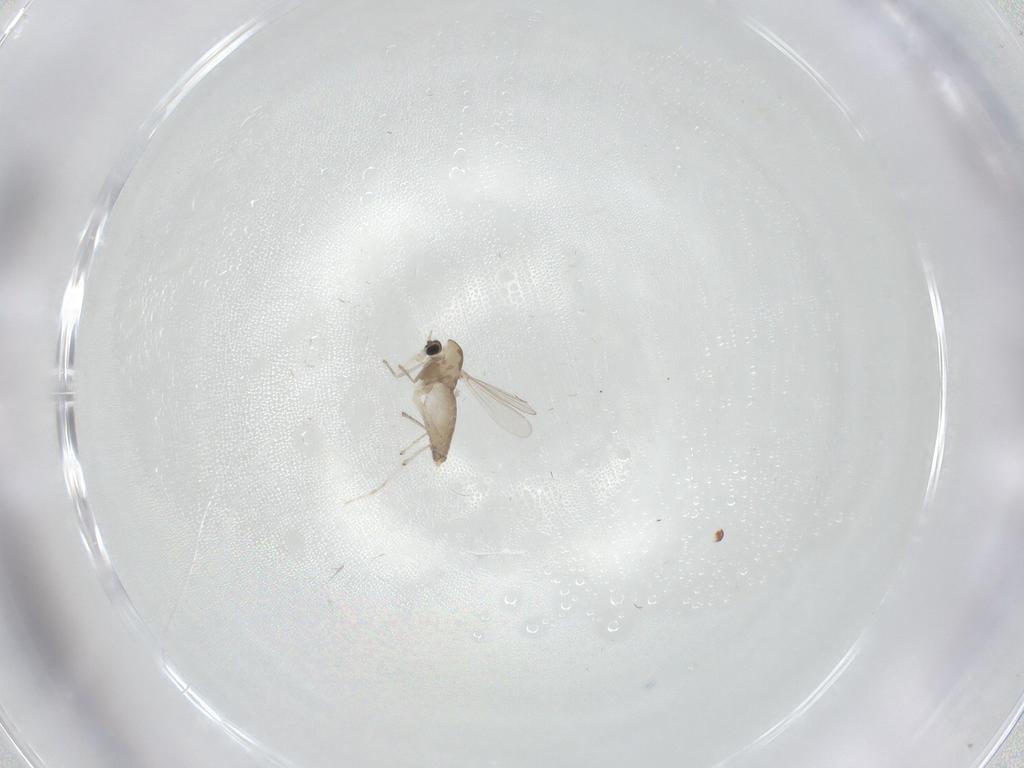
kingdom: Animalia
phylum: Arthropoda
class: Insecta
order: Diptera
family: Chironomidae
